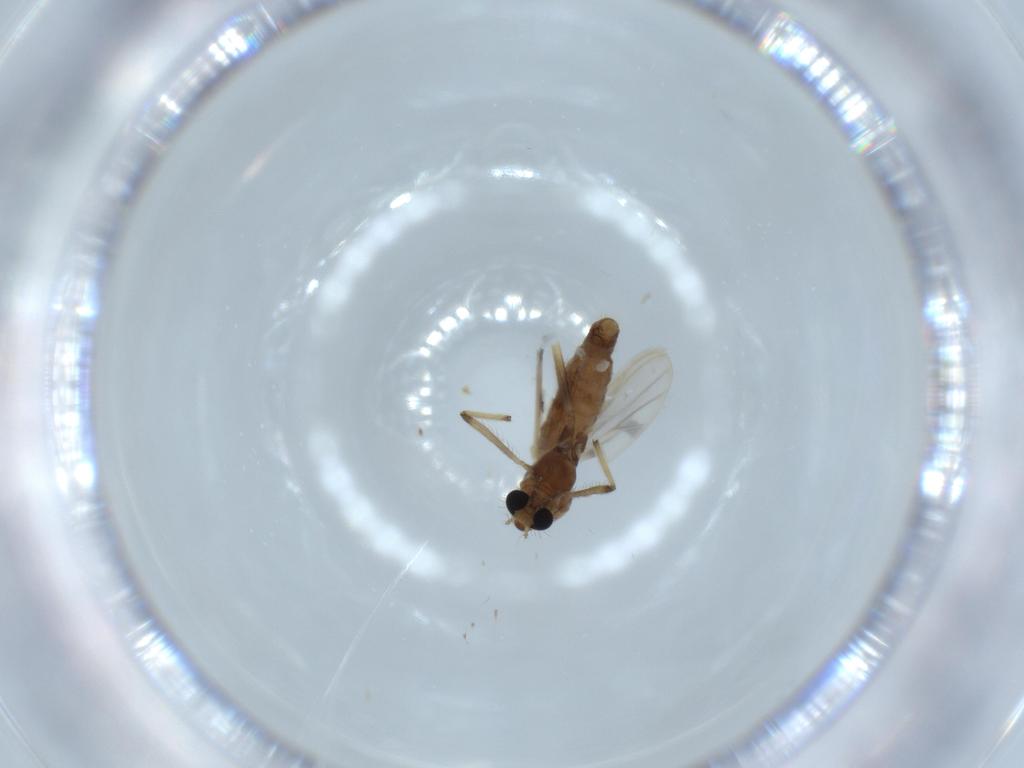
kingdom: Animalia
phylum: Arthropoda
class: Insecta
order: Diptera
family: Chironomidae
